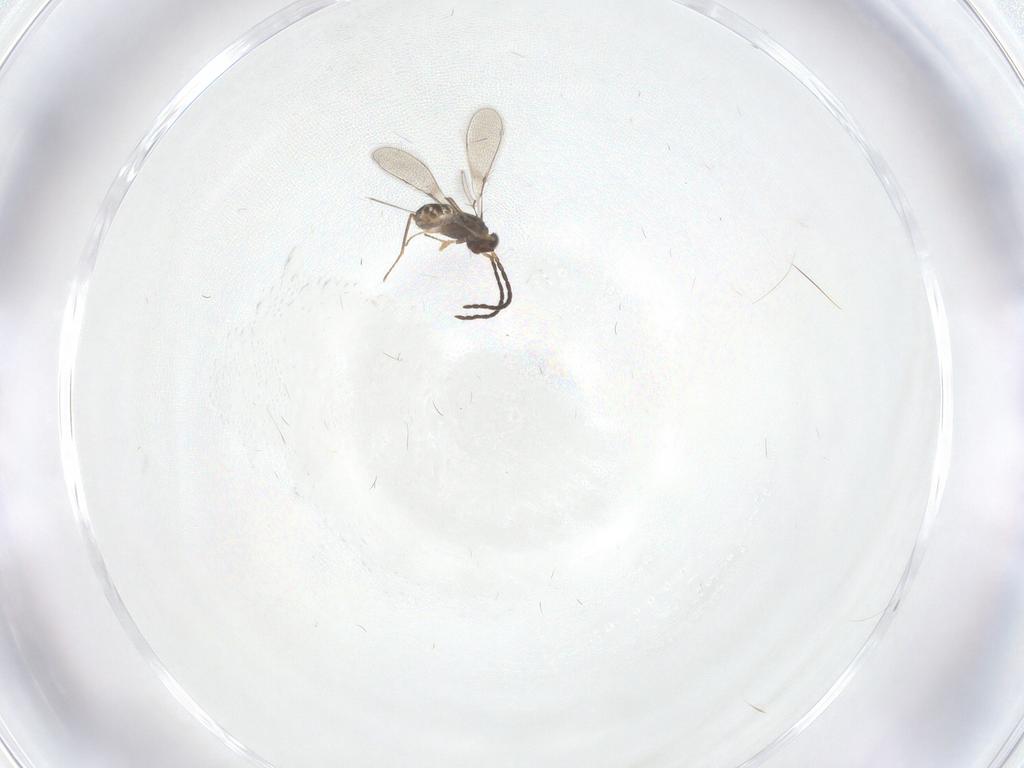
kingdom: Animalia
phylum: Arthropoda
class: Insecta
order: Hymenoptera
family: Mymaridae
